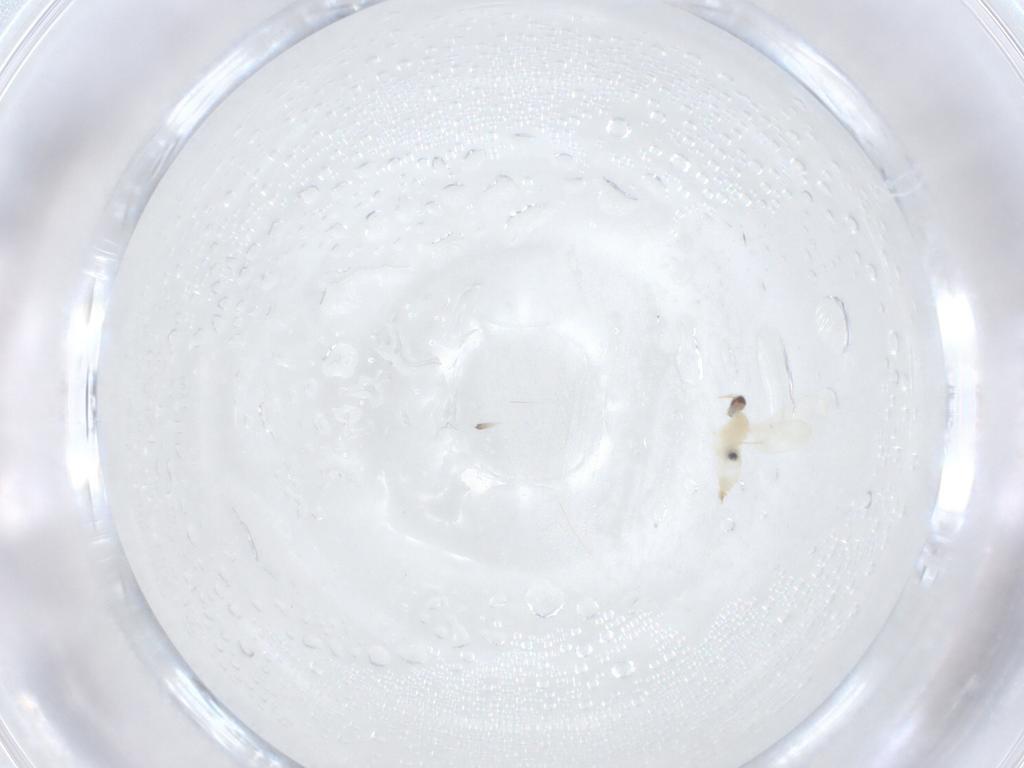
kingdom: Animalia
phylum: Arthropoda
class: Insecta
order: Diptera
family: Cecidomyiidae
